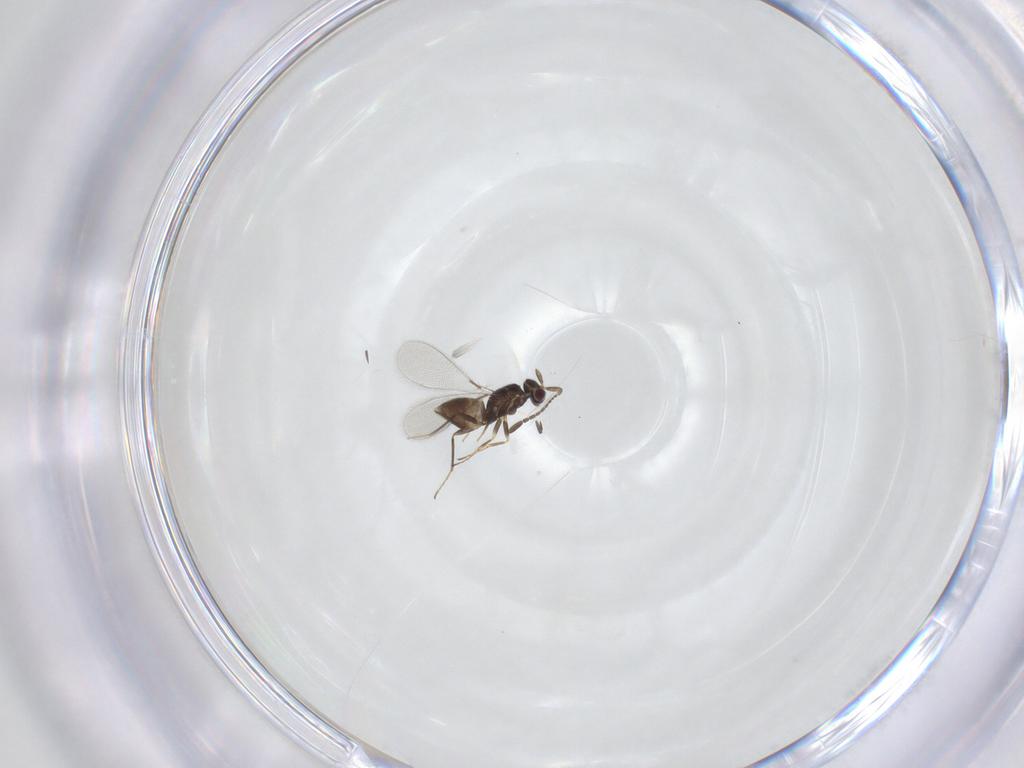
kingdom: Animalia
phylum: Arthropoda
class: Insecta
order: Hymenoptera
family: Mymaridae
